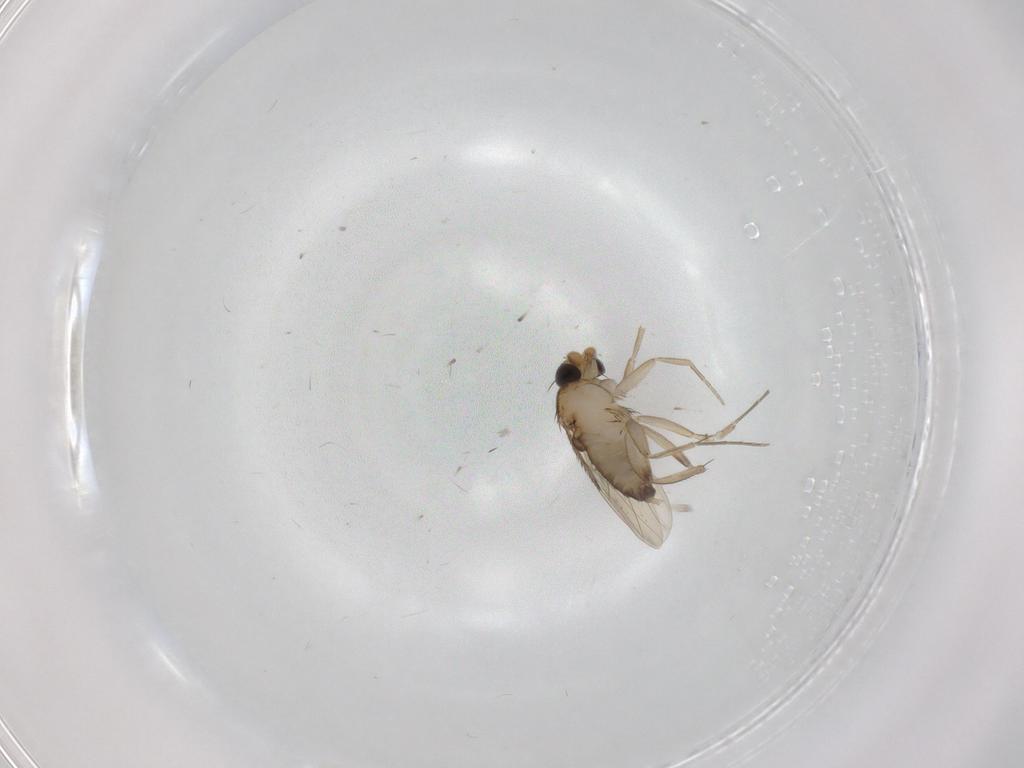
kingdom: Animalia
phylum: Arthropoda
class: Insecta
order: Diptera
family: Phoridae
